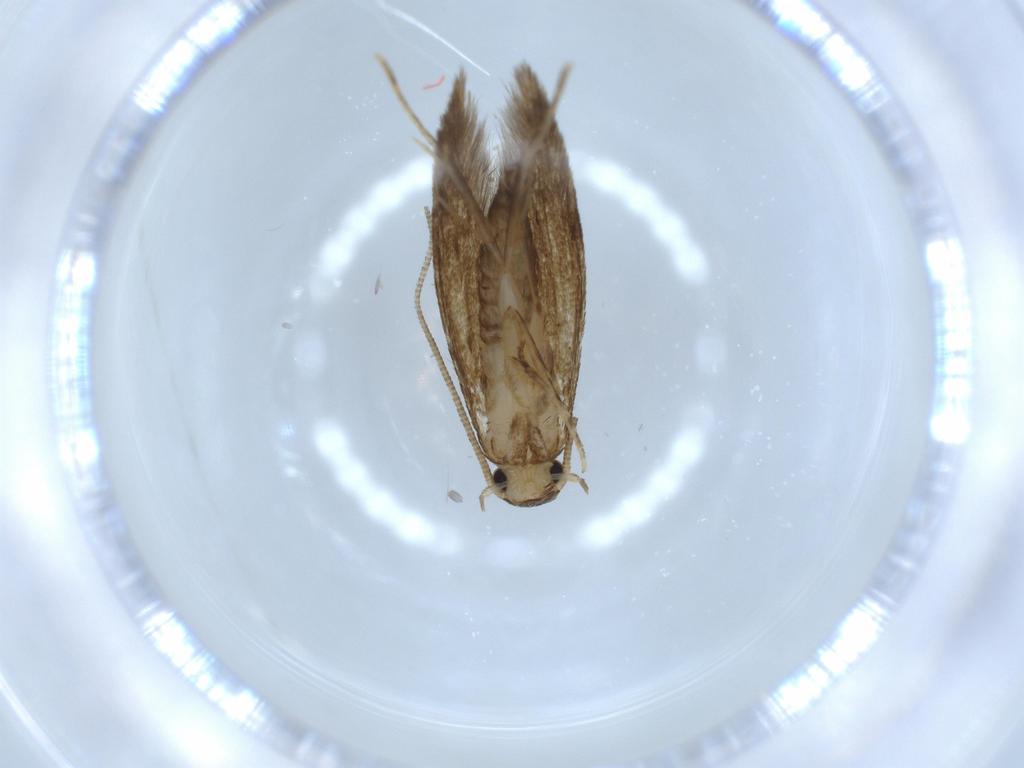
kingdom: Animalia
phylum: Arthropoda
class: Insecta
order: Lepidoptera
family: Tineidae
